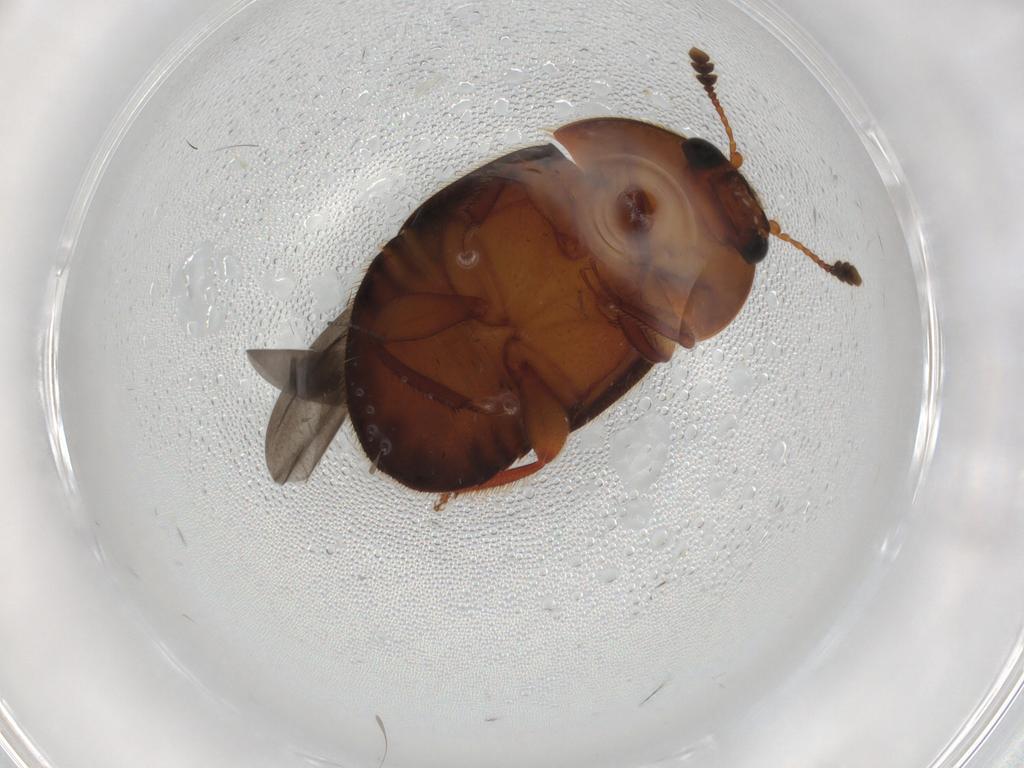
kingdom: Animalia
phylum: Arthropoda
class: Insecta
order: Coleoptera
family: Nitidulidae
